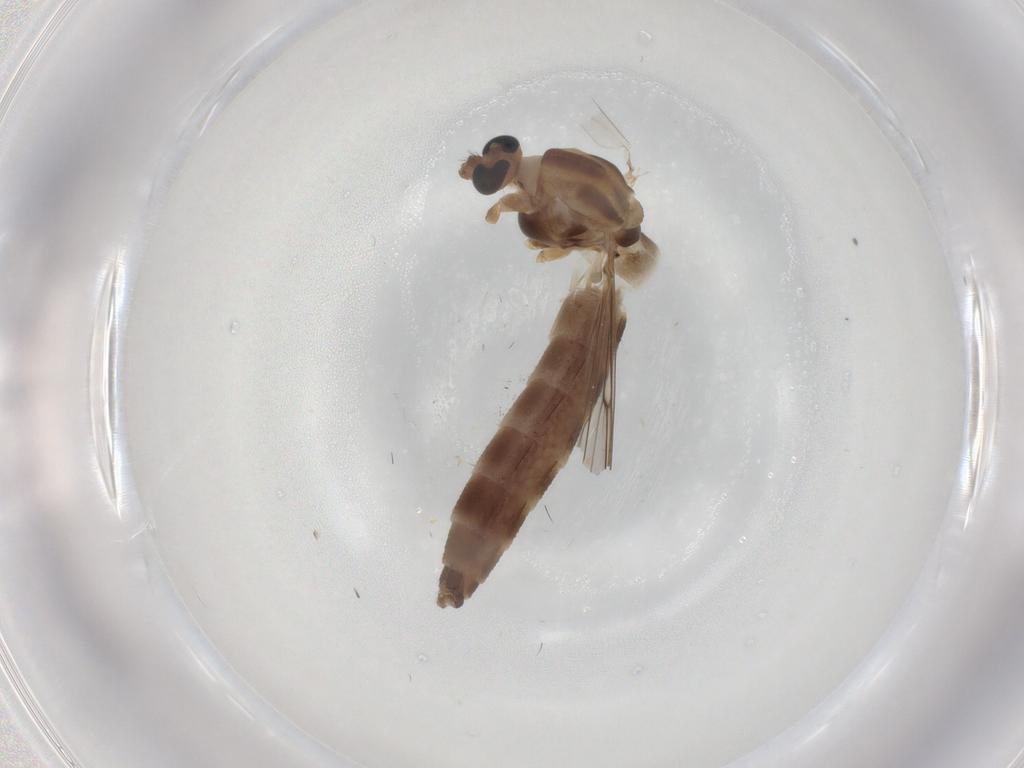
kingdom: Animalia
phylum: Arthropoda
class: Insecta
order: Diptera
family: Chironomidae
